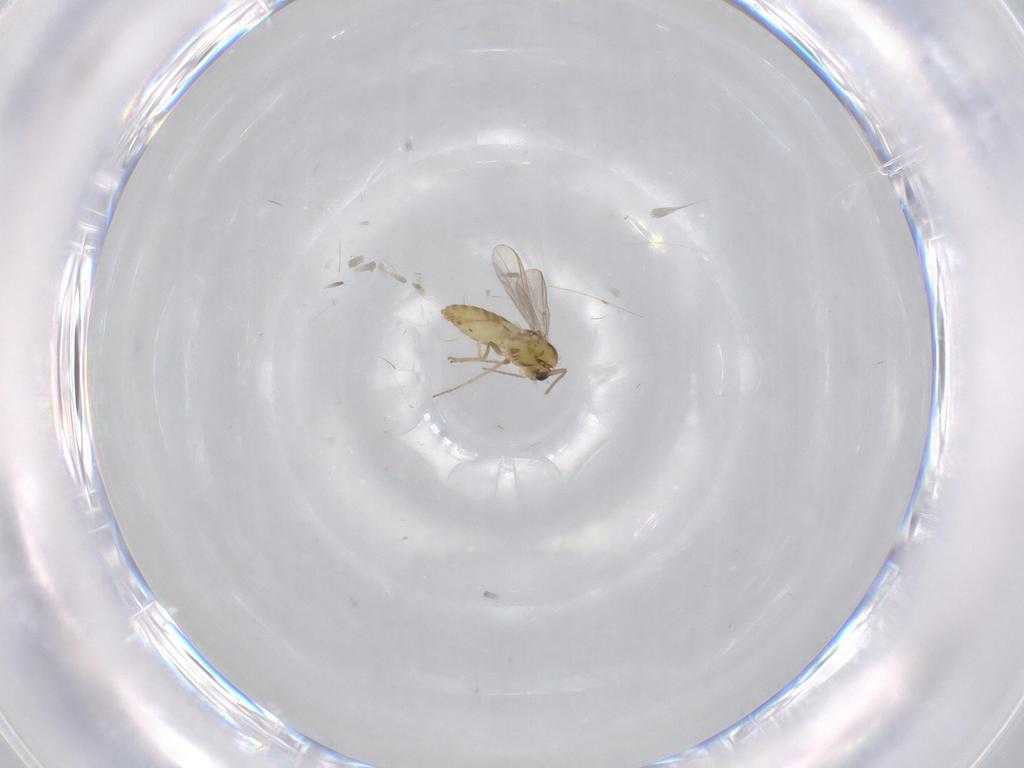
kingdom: Animalia
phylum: Arthropoda
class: Insecta
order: Diptera
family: Chironomidae
